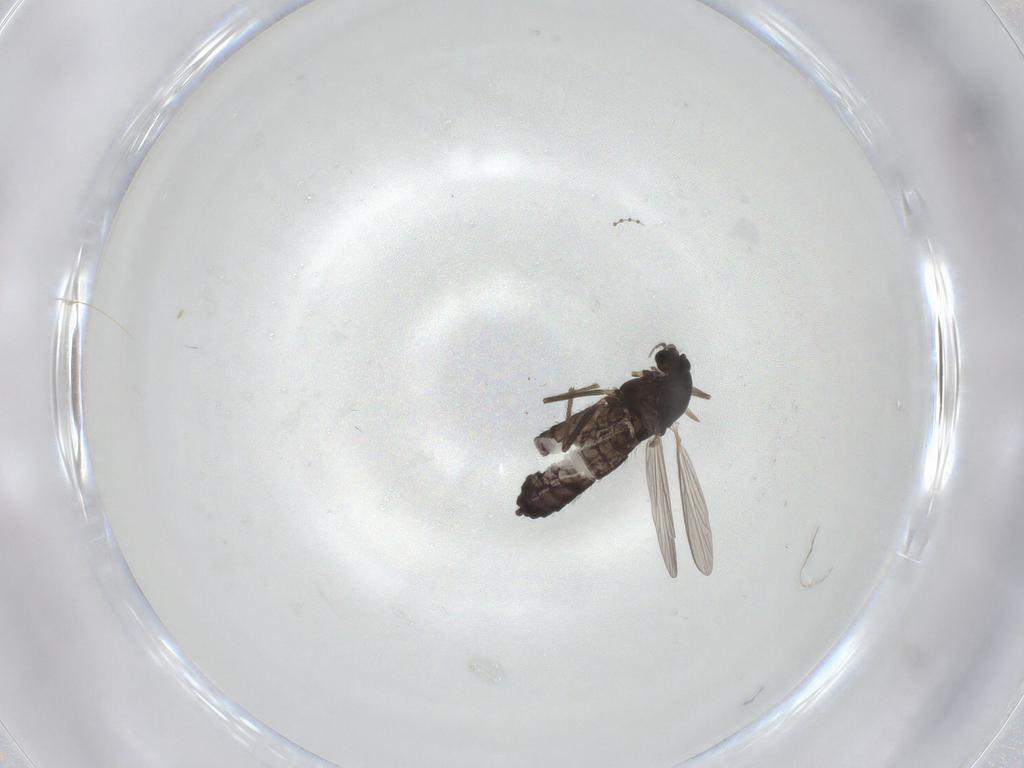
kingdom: Animalia
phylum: Arthropoda
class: Insecta
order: Diptera
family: Chironomidae
